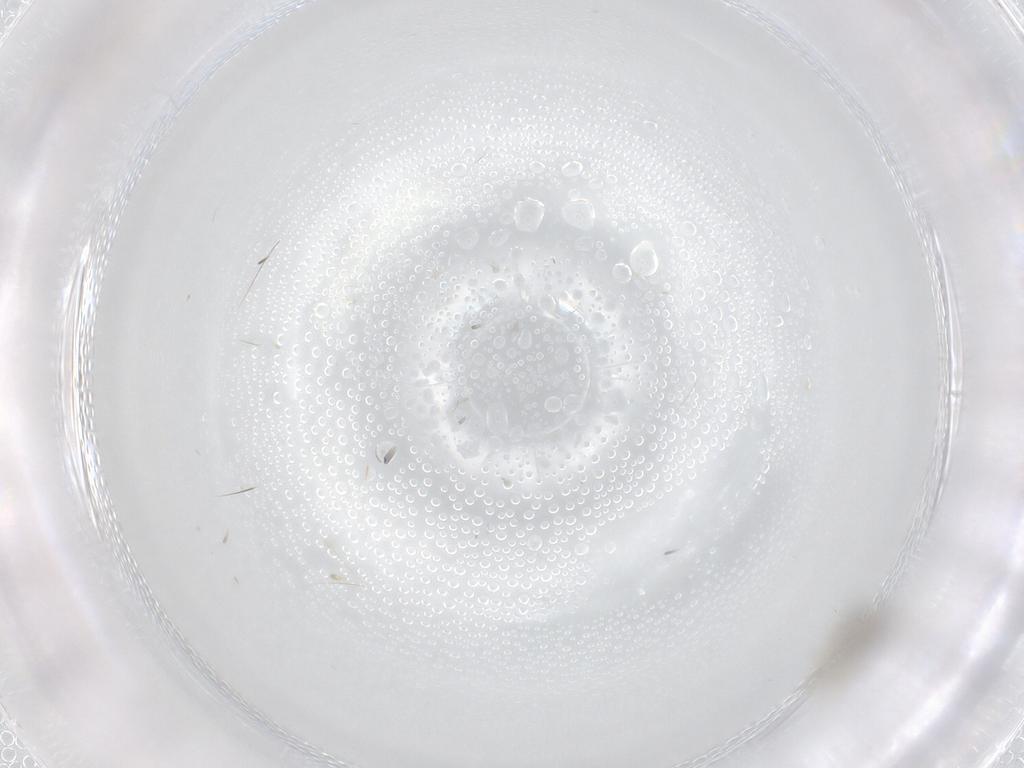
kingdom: Animalia
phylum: Arthropoda
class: Insecta
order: Diptera
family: Cecidomyiidae
